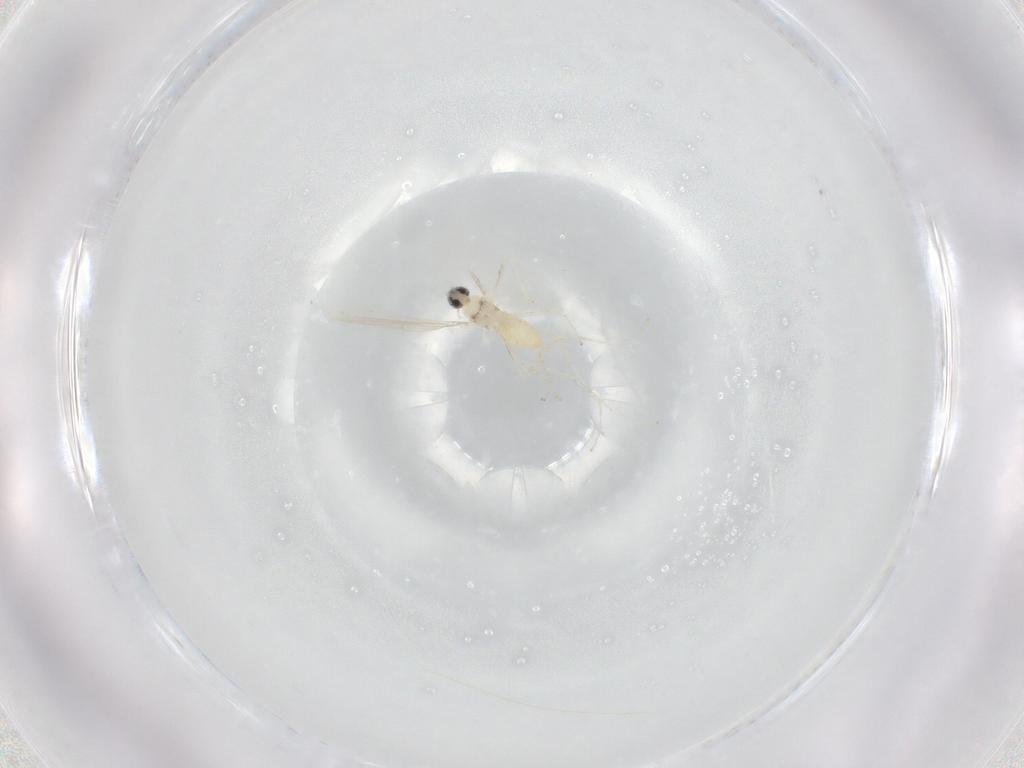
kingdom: Animalia
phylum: Arthropoda
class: Insecta
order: Diptera
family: Cecidomyiidae
